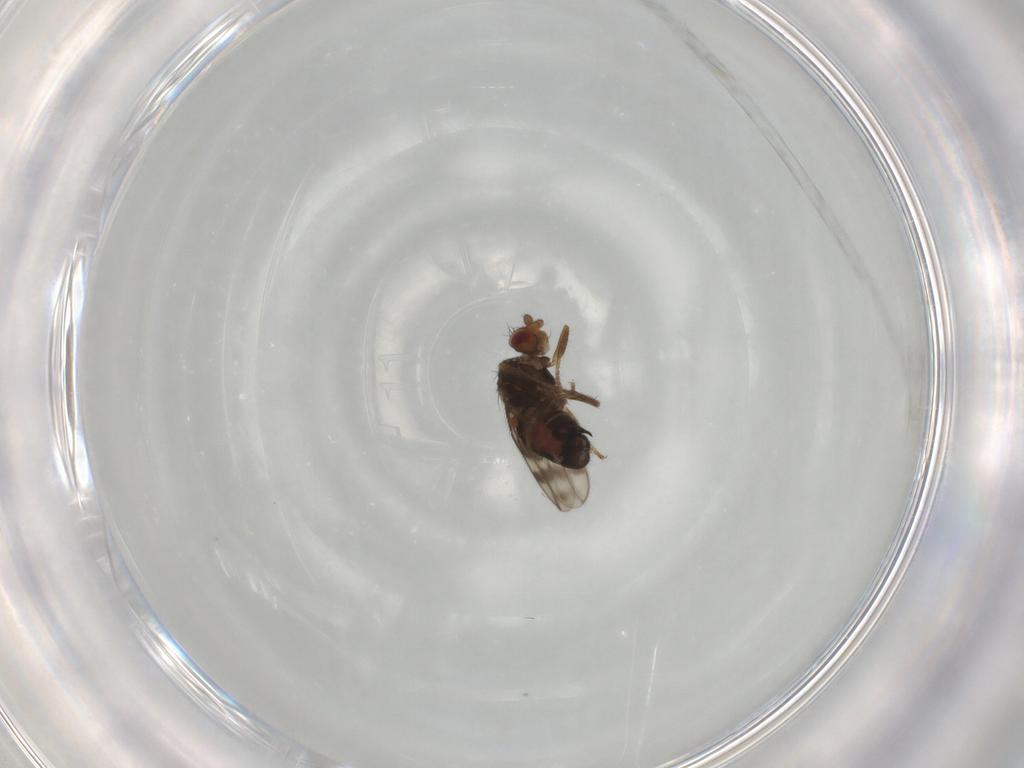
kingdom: Animalia
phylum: Arthropoda
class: Insecta
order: Diptera
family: Sphaeroceridae
